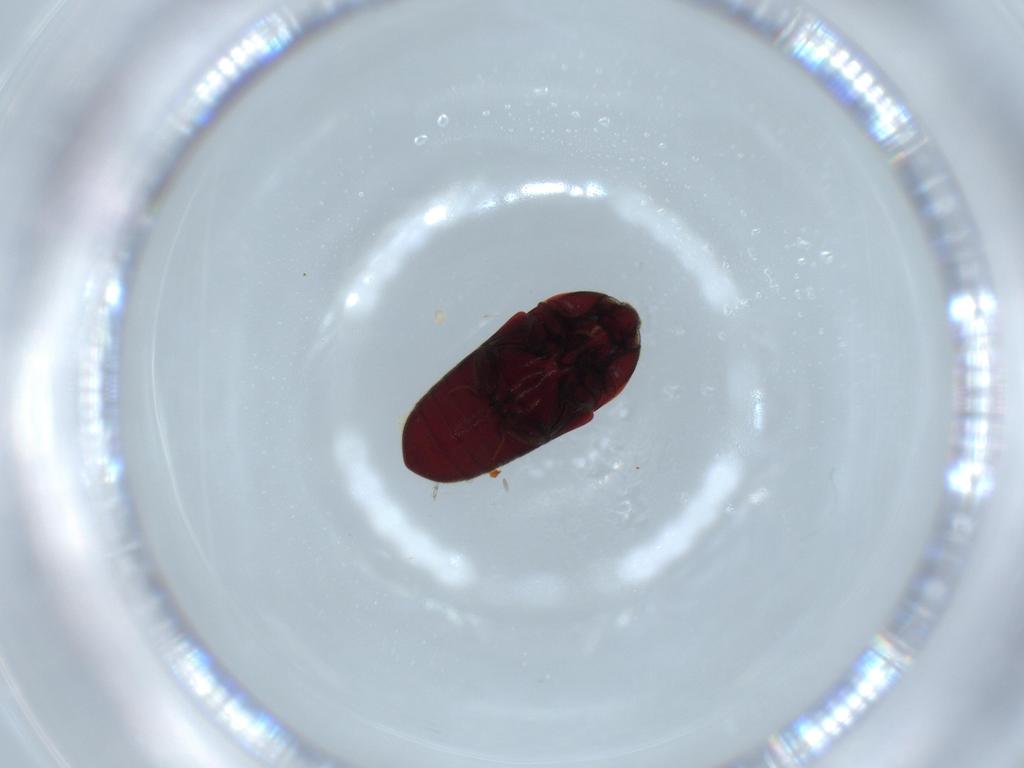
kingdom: Animalia
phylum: Arthropoda
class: Insecta
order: Coleoptera
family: Throscidae
